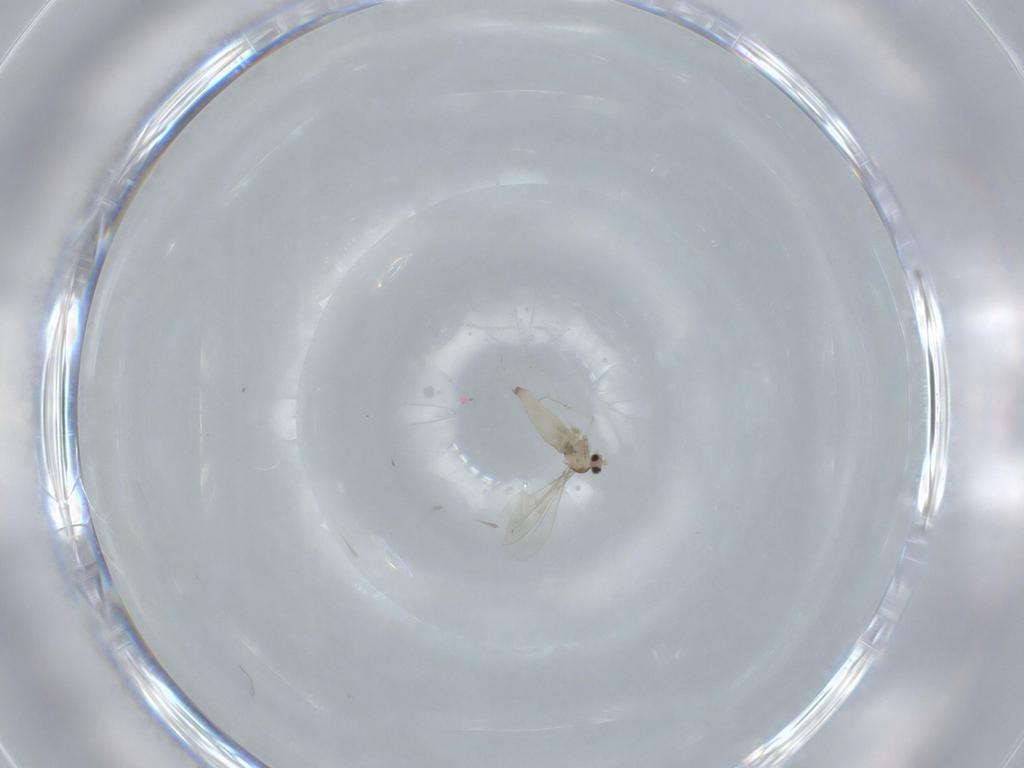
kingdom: Animalia
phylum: Arthropoda
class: Insecta
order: Diptera
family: Cecidomyiidae
